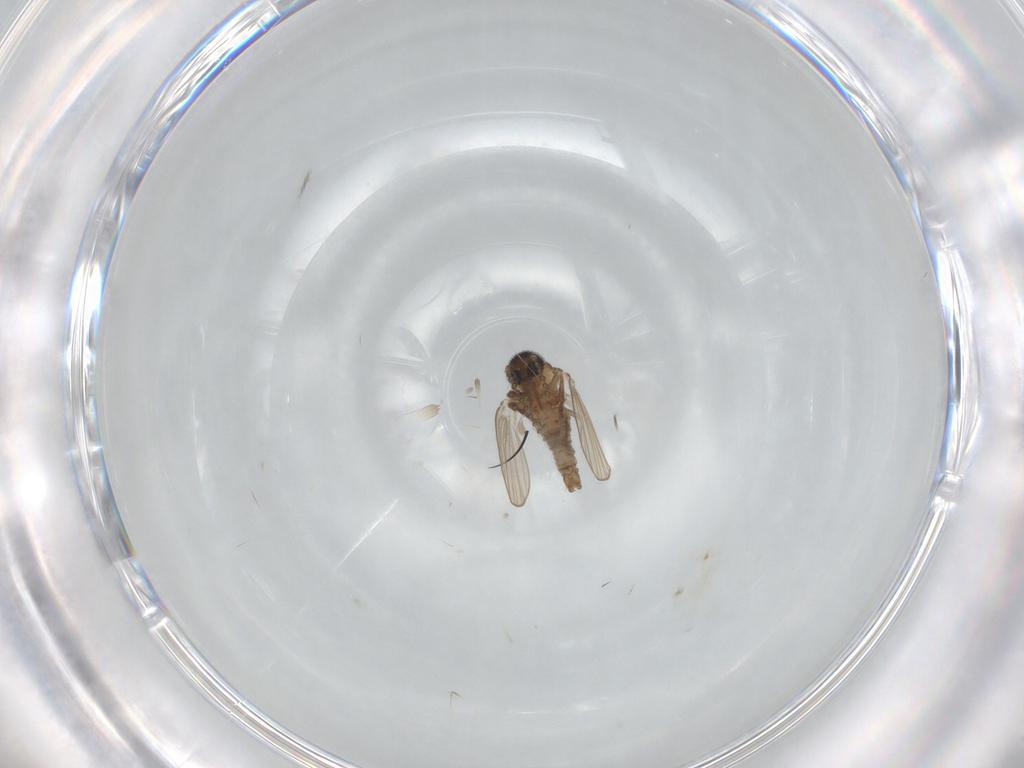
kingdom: Animalia
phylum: Arthropoda
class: Insecta
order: Diptera
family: Psychodidae
